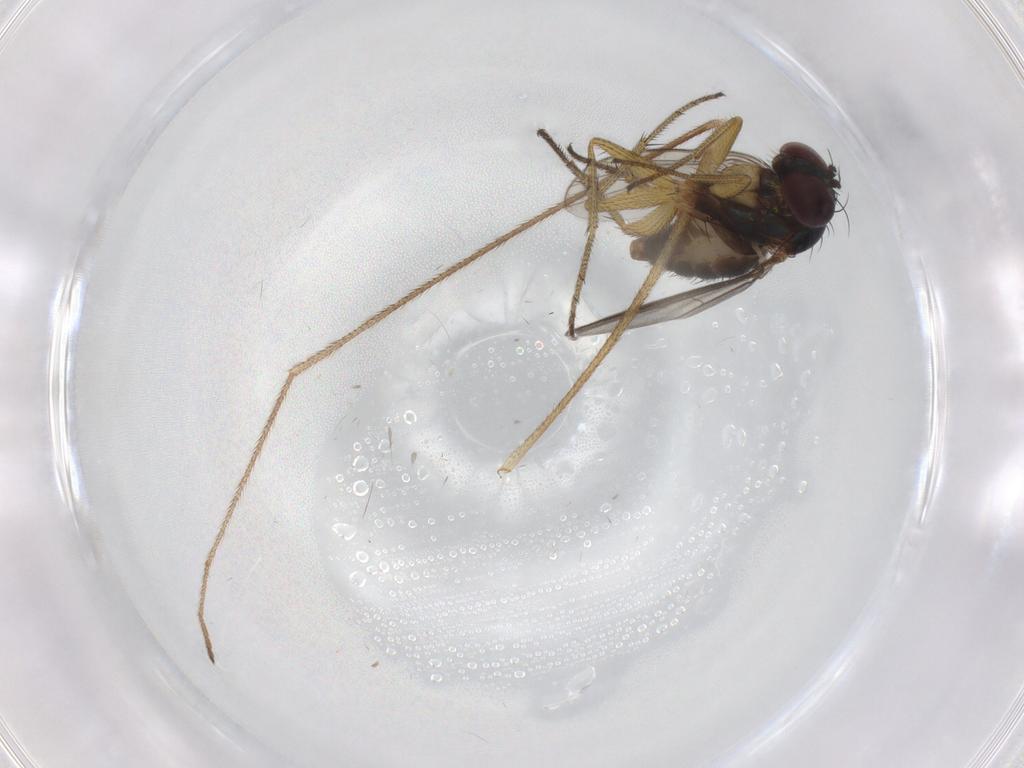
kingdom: Animalia
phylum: Arthropoda
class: Insecta
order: Diptera
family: Dolichopodidae
